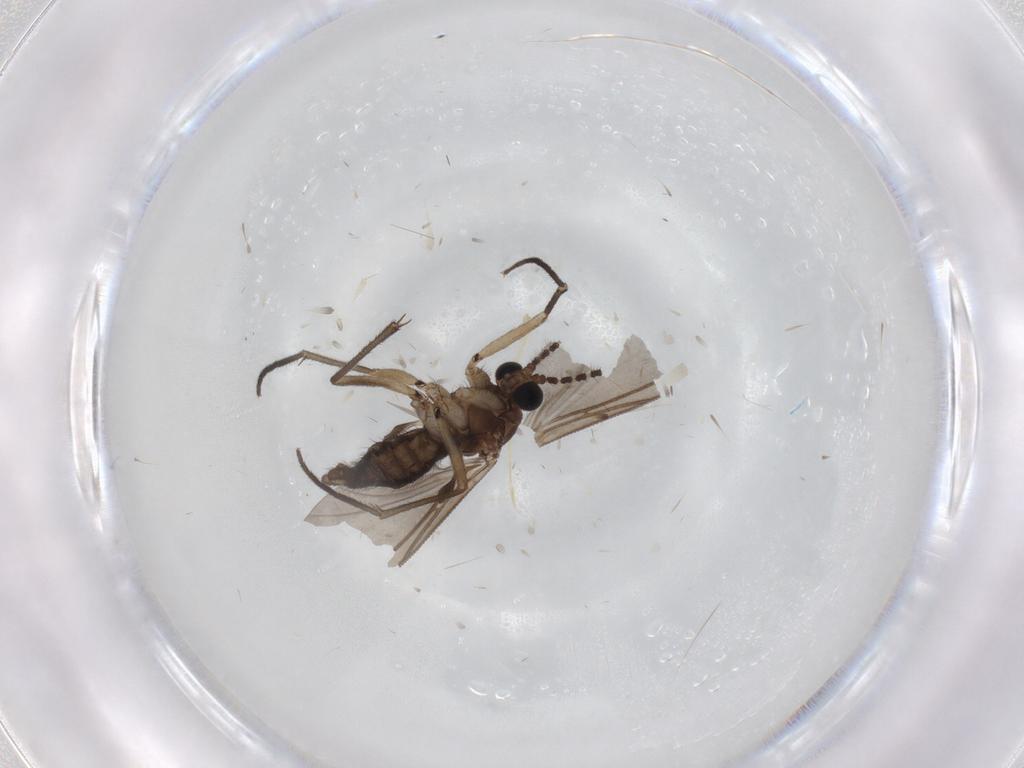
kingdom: Animalia
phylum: Arthropoda
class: Insecta
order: Diptera
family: Sciaridae
